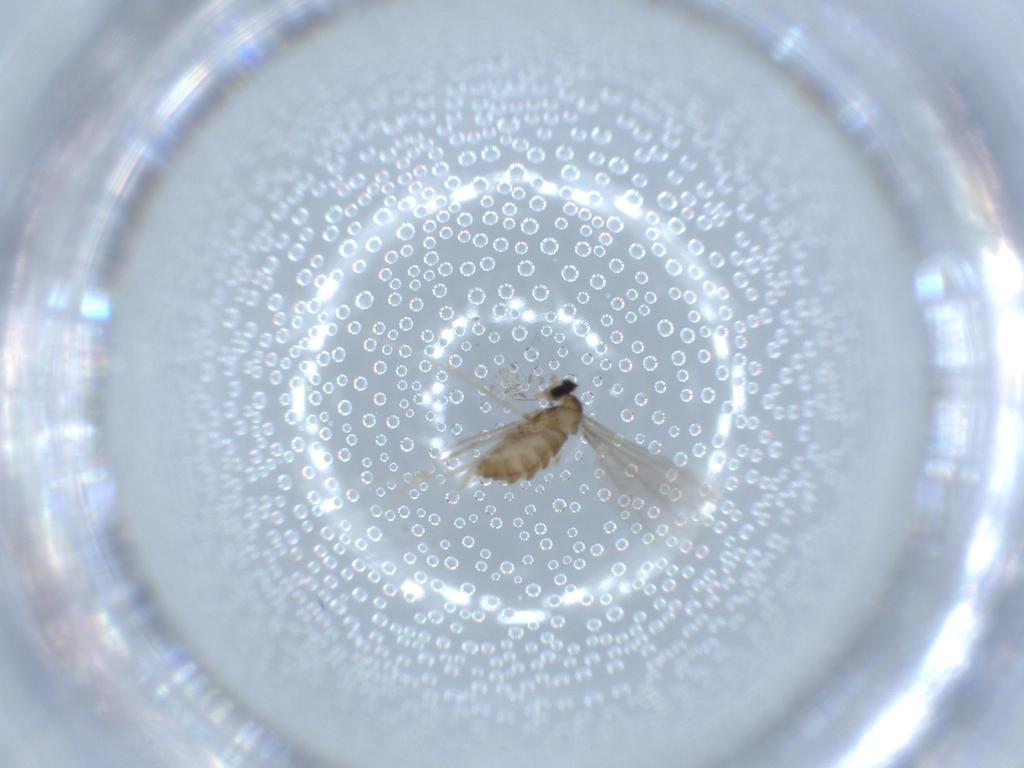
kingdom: Animalia
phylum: Arthropoda
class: Insecta
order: Diptera
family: Cecidomyiidae
